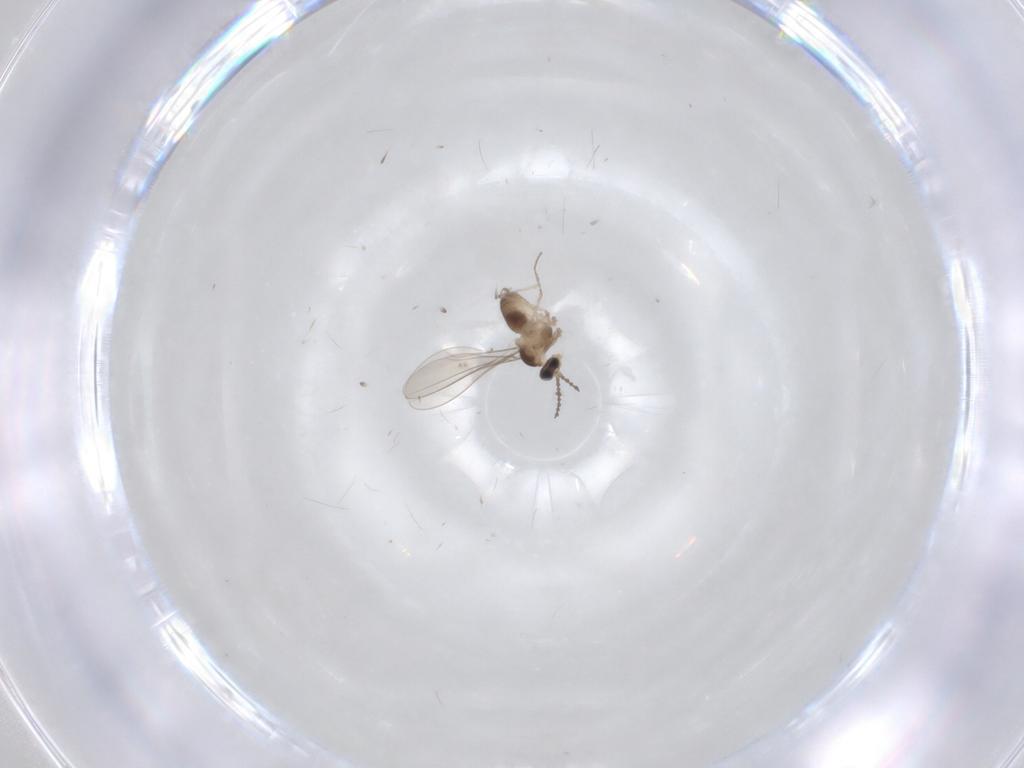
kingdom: Animalia
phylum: Arthropoda
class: Insecta
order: Diptera
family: Cecidomyiidae
